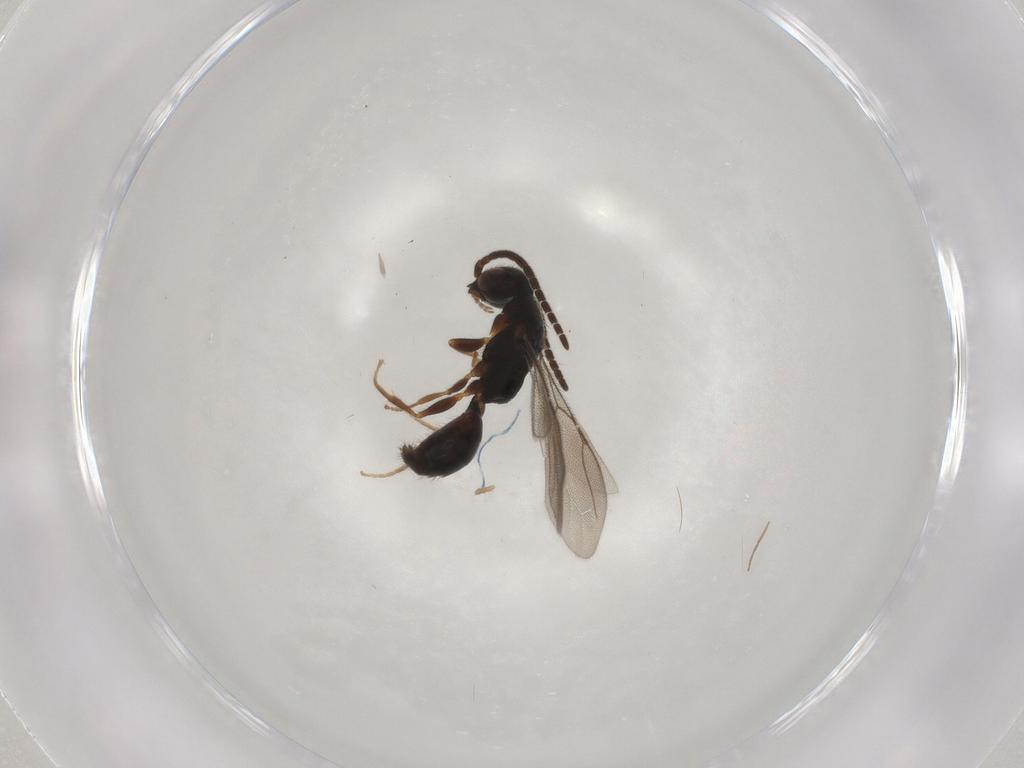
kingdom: Animalia
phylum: Arthropoda
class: Insecta
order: Hymenoptera
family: Bethylidae
